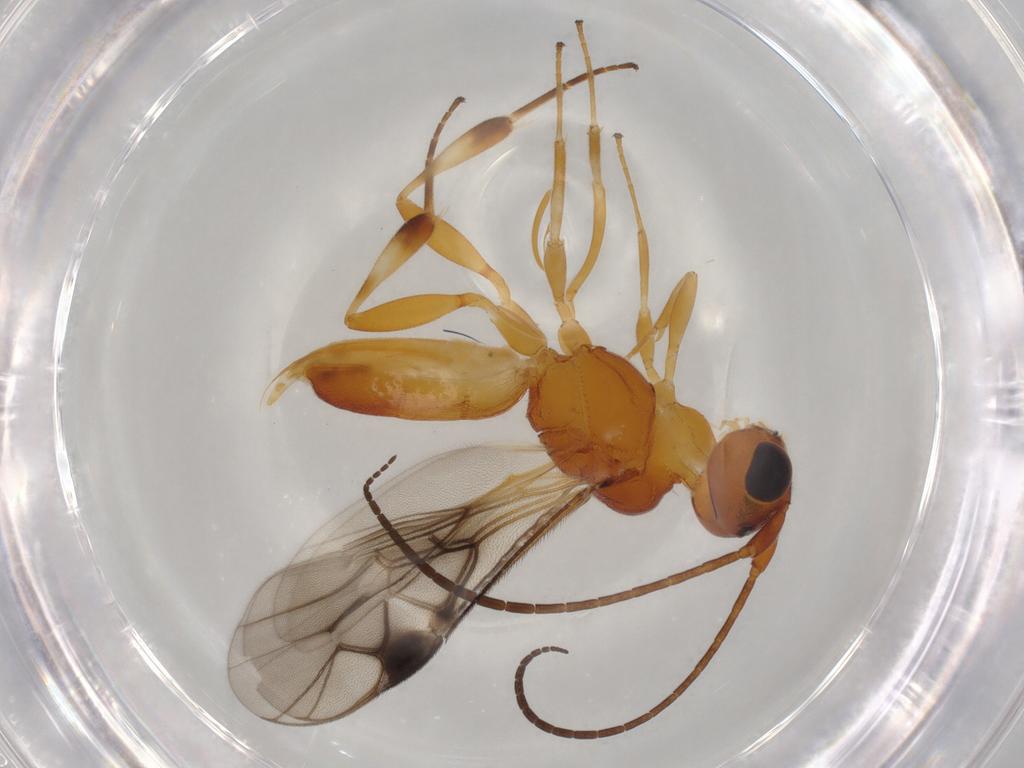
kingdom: Animalia
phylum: Arthropoda
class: Insecta
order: Hymenoptera
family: Braconidae
